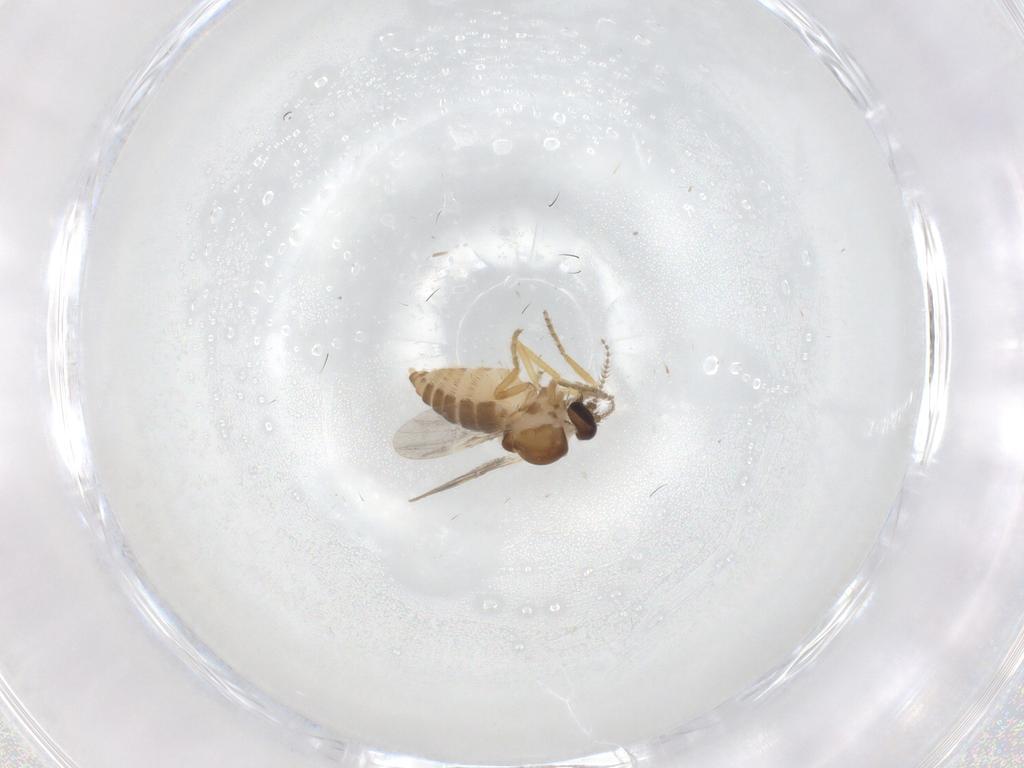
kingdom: Animalia
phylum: Arthropoda
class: Insecta
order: Diptera
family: Ceratopogonidae
